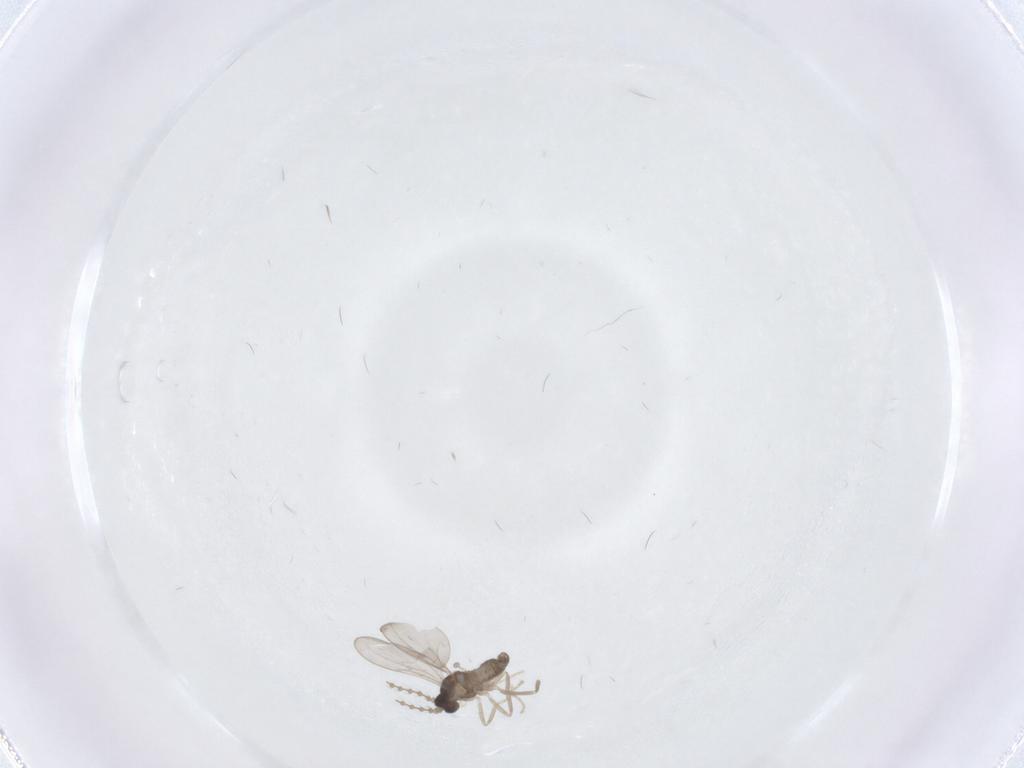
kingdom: Animalia
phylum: Arthropoda
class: Insecta
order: Diptera
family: Cecidomyiidae
